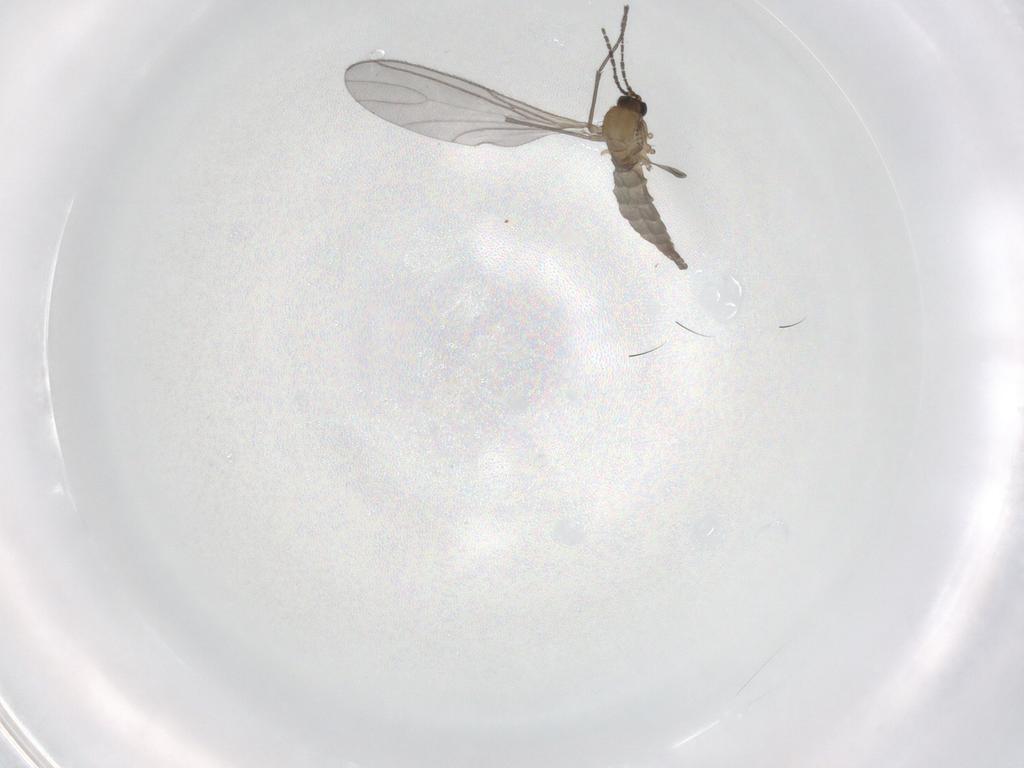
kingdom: Animalia
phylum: Arthropoda
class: Insecta
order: Diptera
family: Sciaridae
